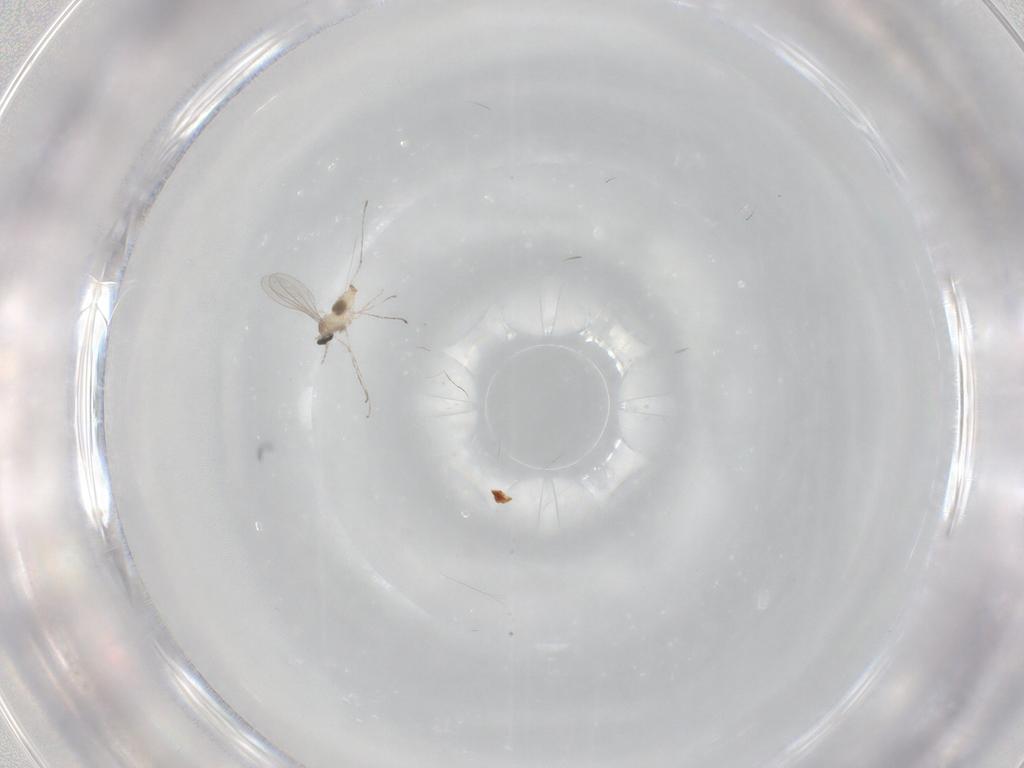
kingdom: Animalia
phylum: Arthropoda
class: Insecta
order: Diptera
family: Cecidomyiidae
